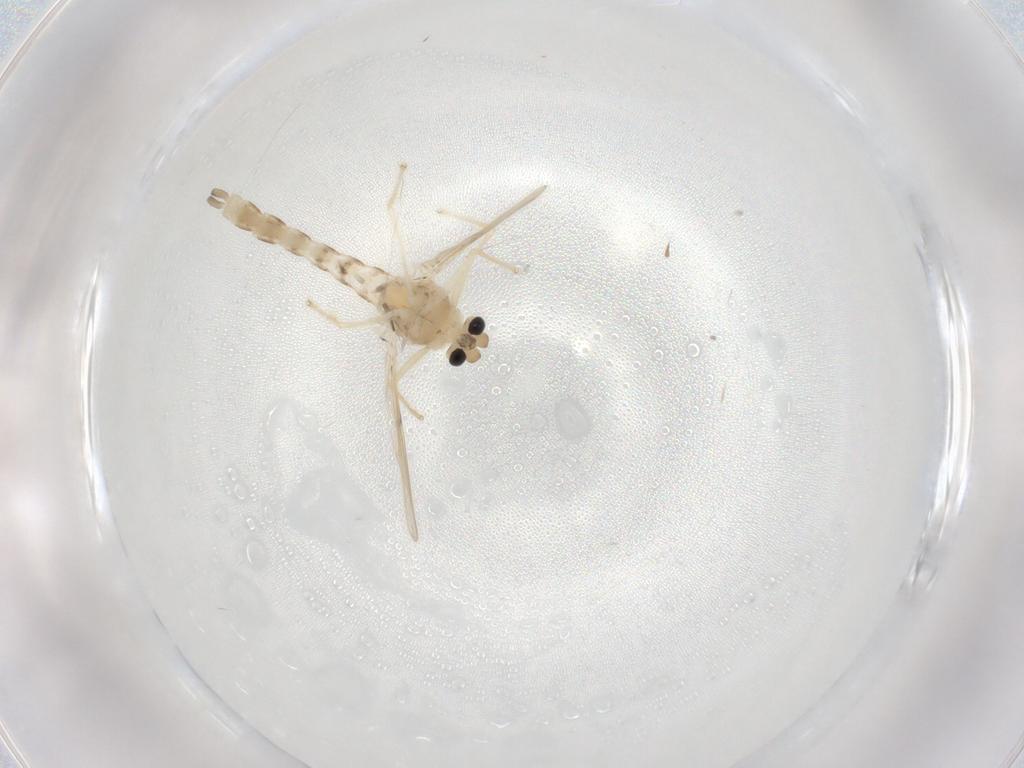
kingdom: Animalia
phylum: Arthropoda
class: Insecta
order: Diptera
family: Chironomidae
